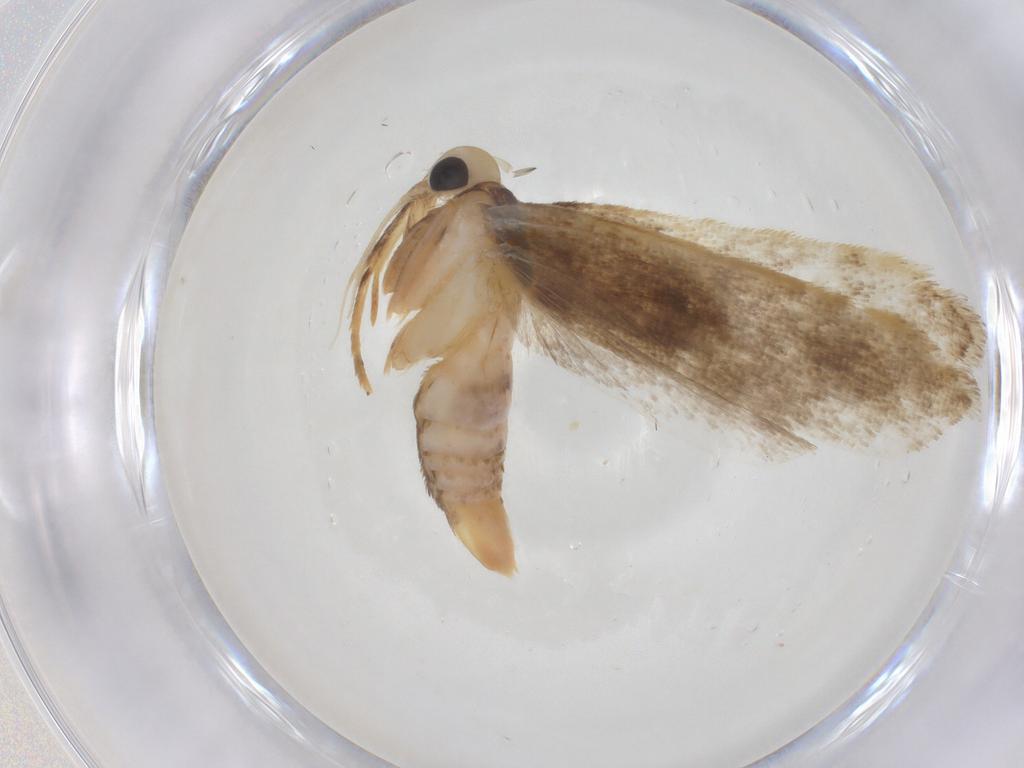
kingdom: Animalia
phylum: Arthropoda
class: Insecta
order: Lepidoptera
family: Gelechiidae
